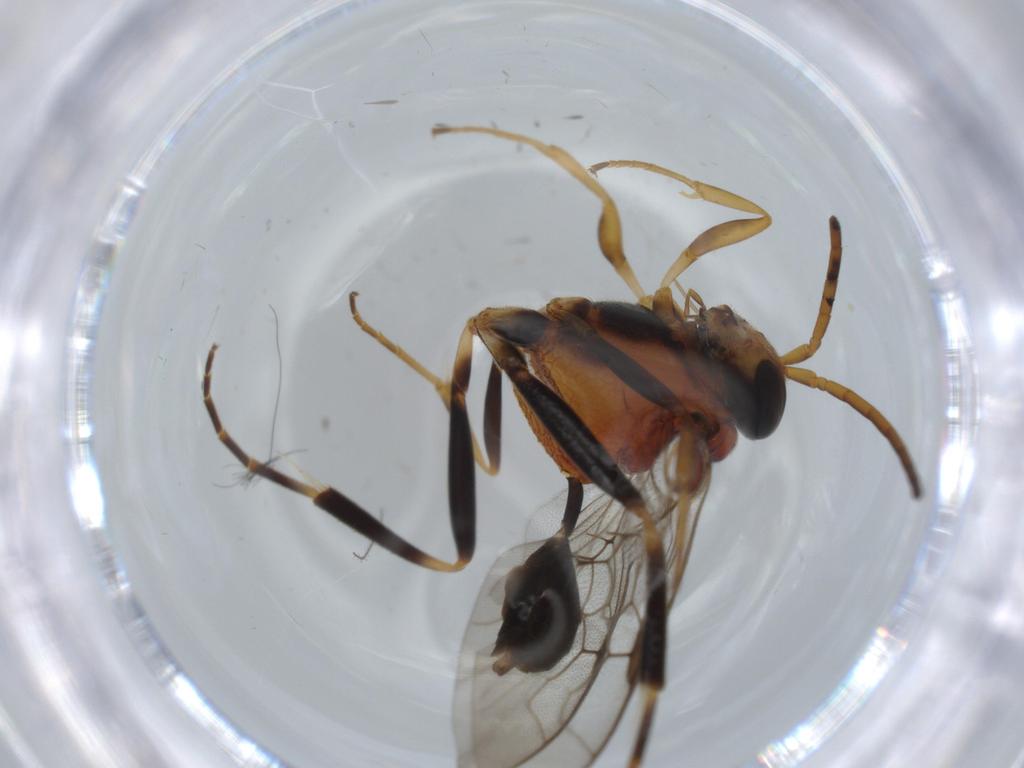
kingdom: Animalia
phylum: Arthropoda
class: Insecta
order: Hymenoptera
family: Evaniidae
